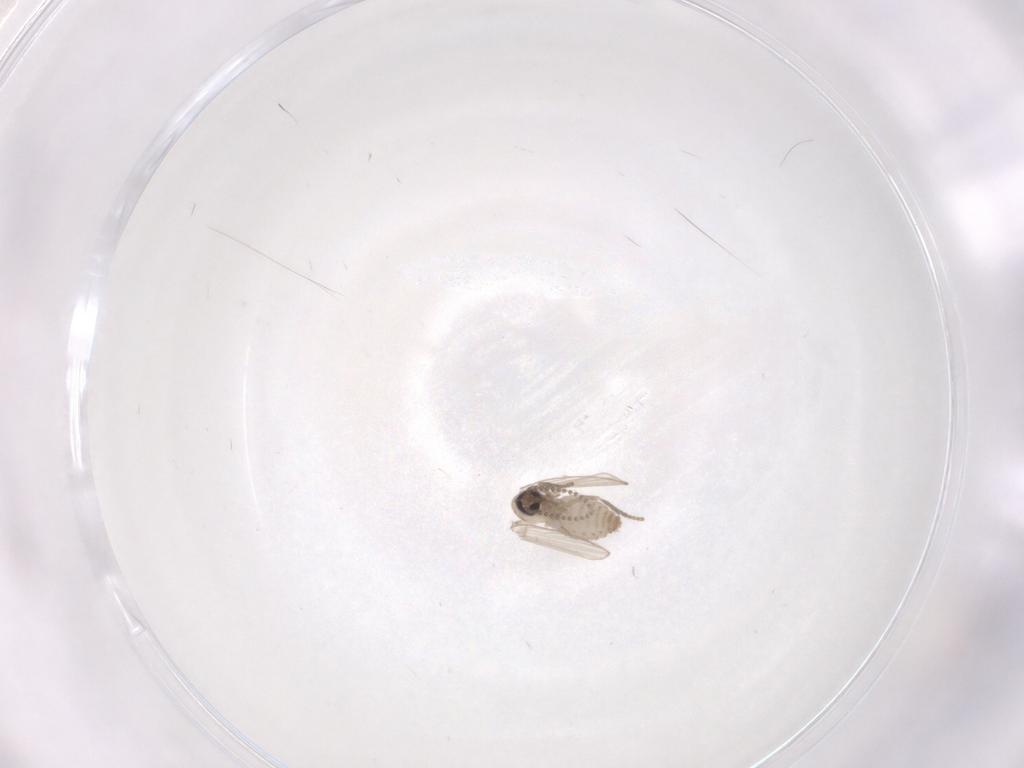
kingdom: Animalia
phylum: Arthropoda
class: Insecta
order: Diptera
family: Psychodidae
